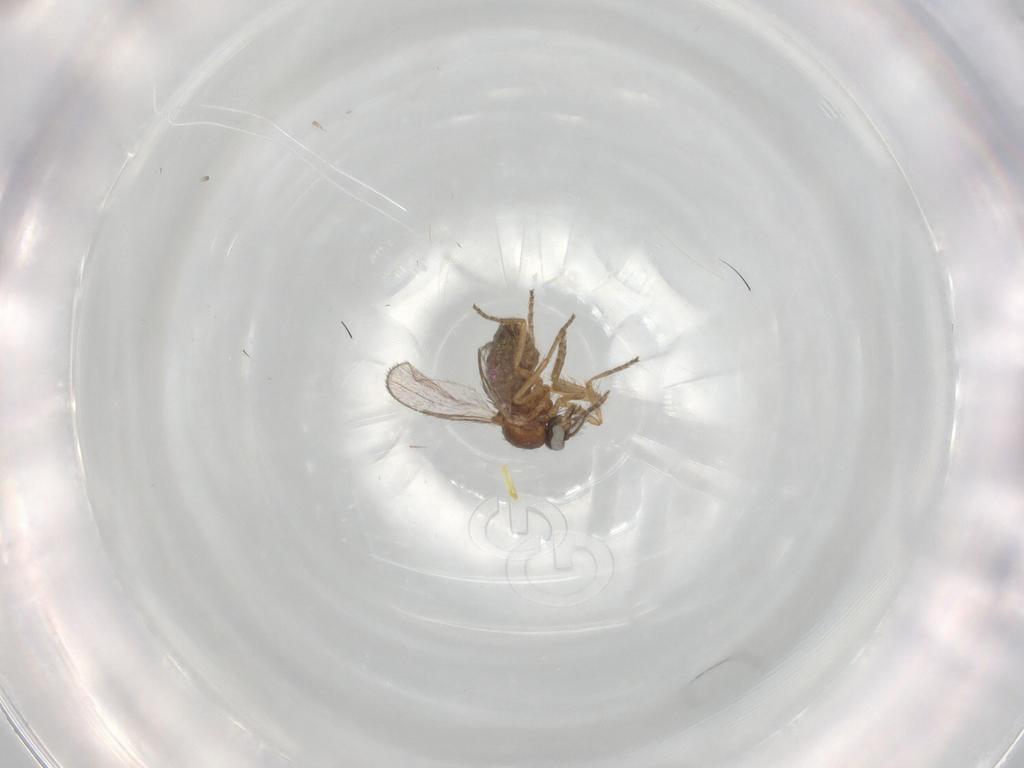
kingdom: Animalia
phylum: Arthropoda
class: Insecta
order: Diptera
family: Ceratopogonidae
